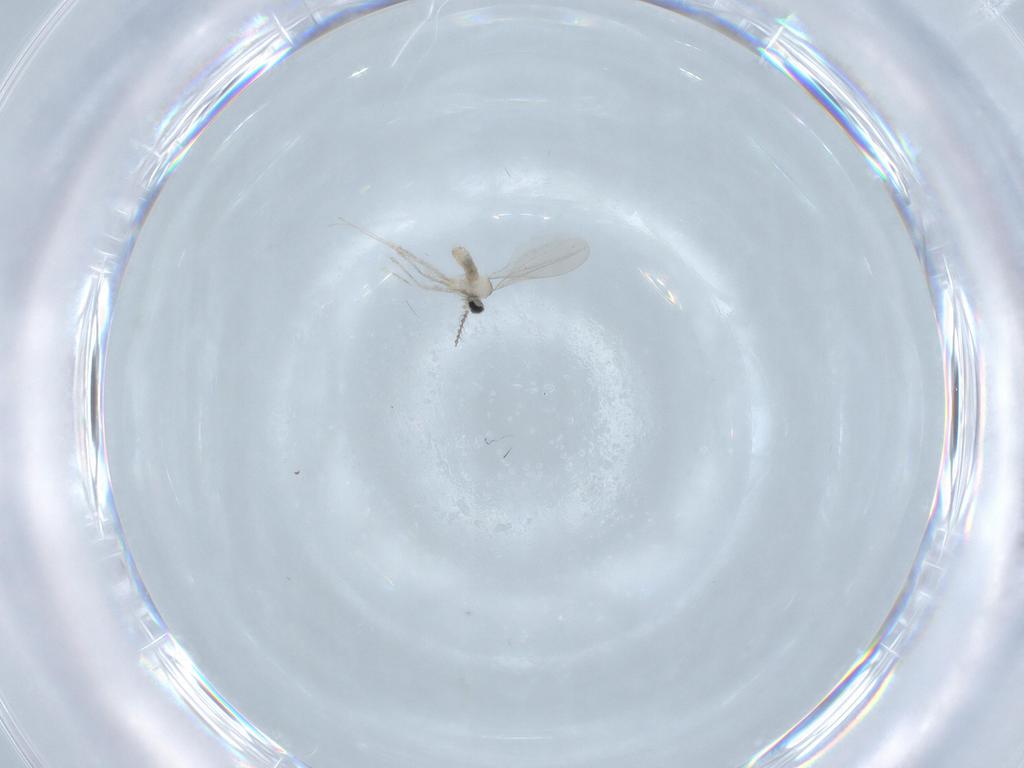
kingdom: Animalia
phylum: Arthropoda
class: Insecta
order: Diptera
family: Cecidomyiidae
